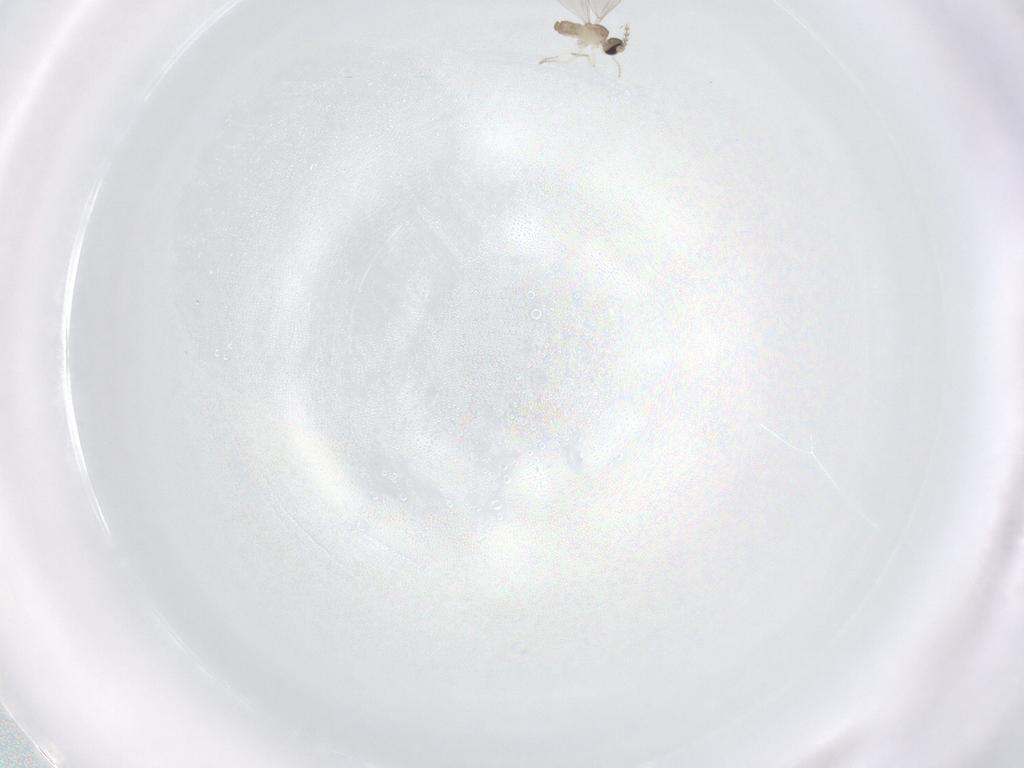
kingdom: Animalia
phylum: Arthropoda
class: Insecta
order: Diptera
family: Cecidomyiidae
